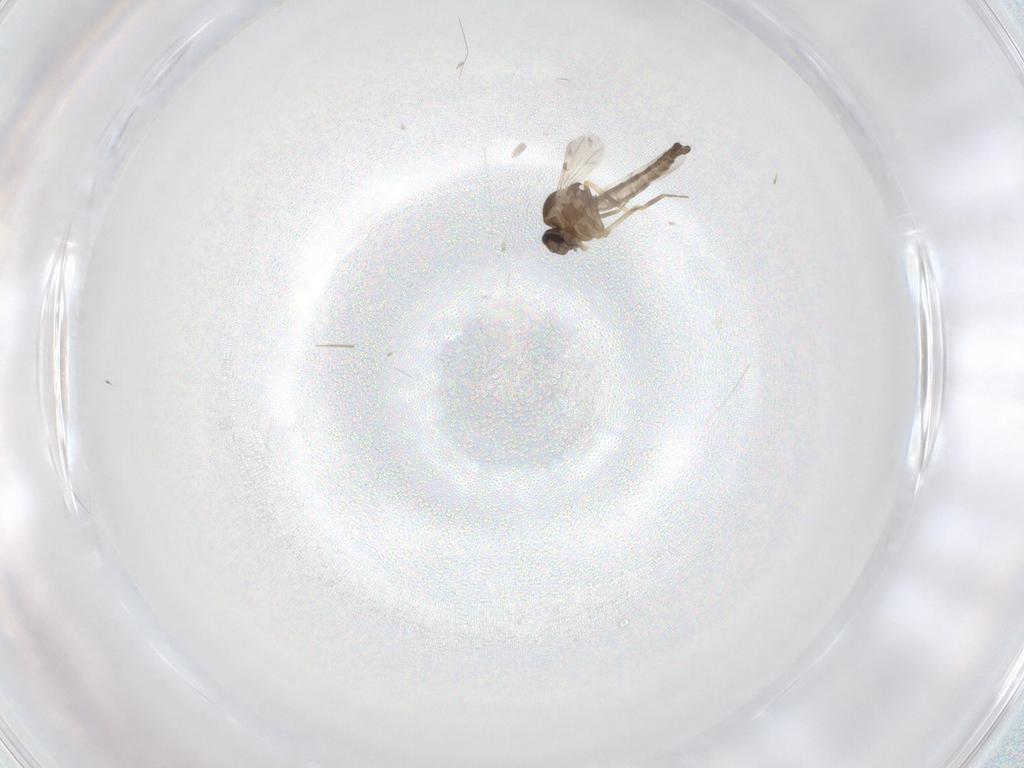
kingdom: Animalia
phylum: Arthropoda
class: Insecta
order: Diptera
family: Ceratopogonidae
